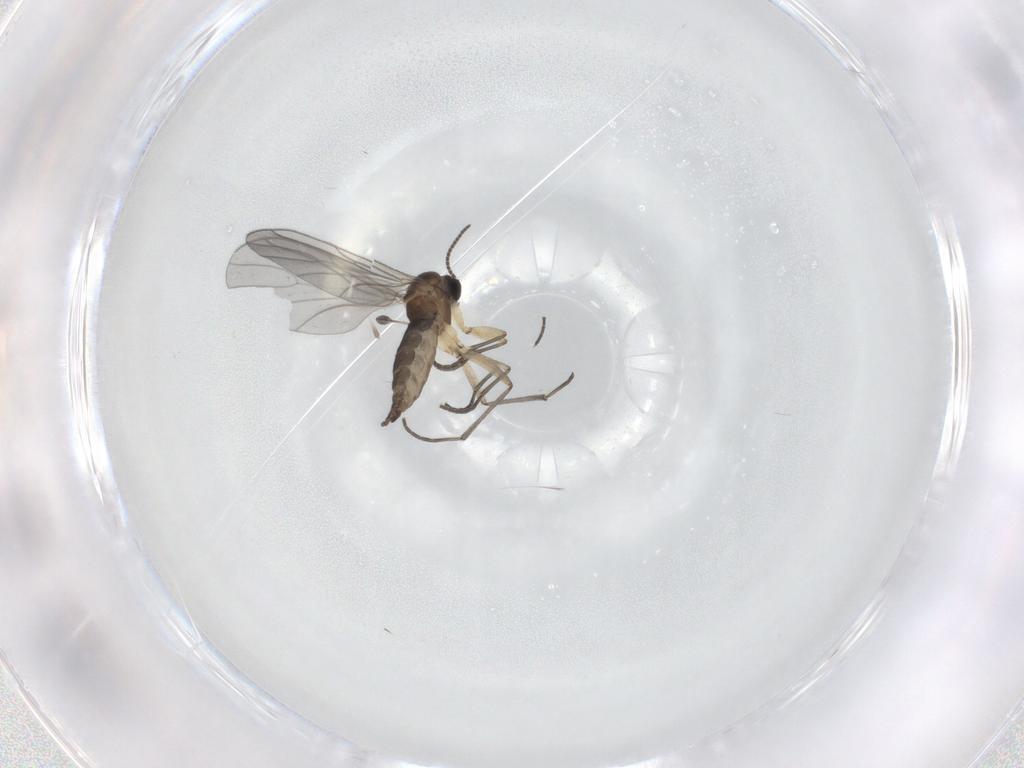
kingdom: Animalia
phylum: Arthropoda
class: Insecta
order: Diptera
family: Sciaridae
